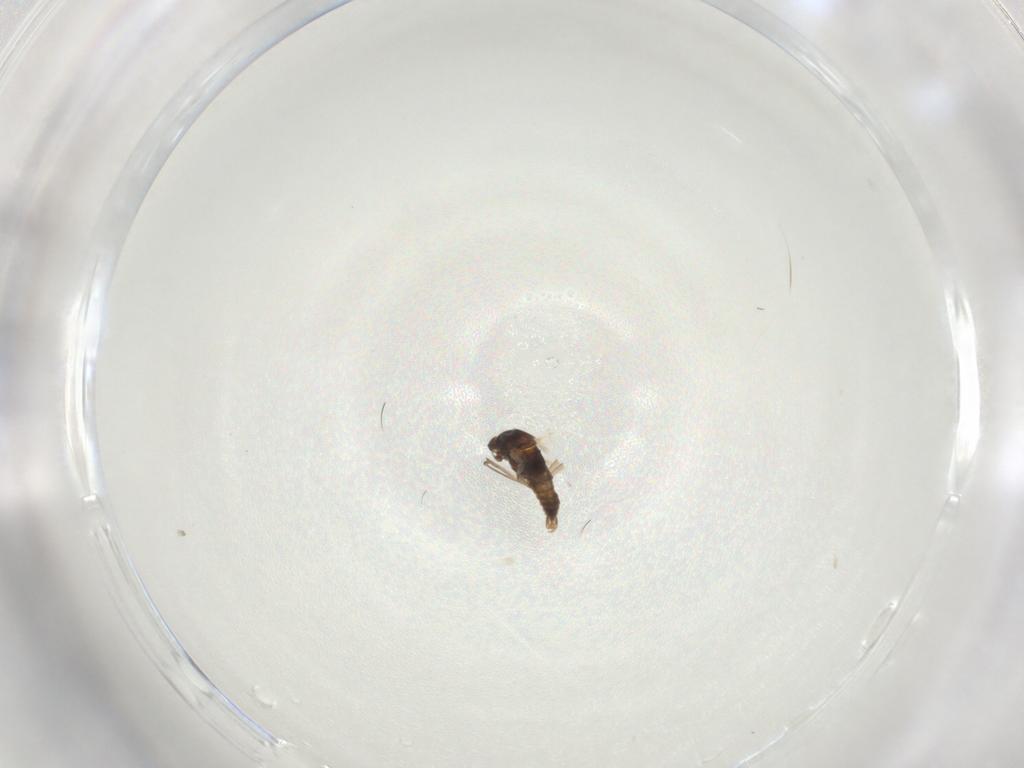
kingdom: Animalia
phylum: Arthropoda
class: Insecta
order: Diptera
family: Cecidomyiidae
